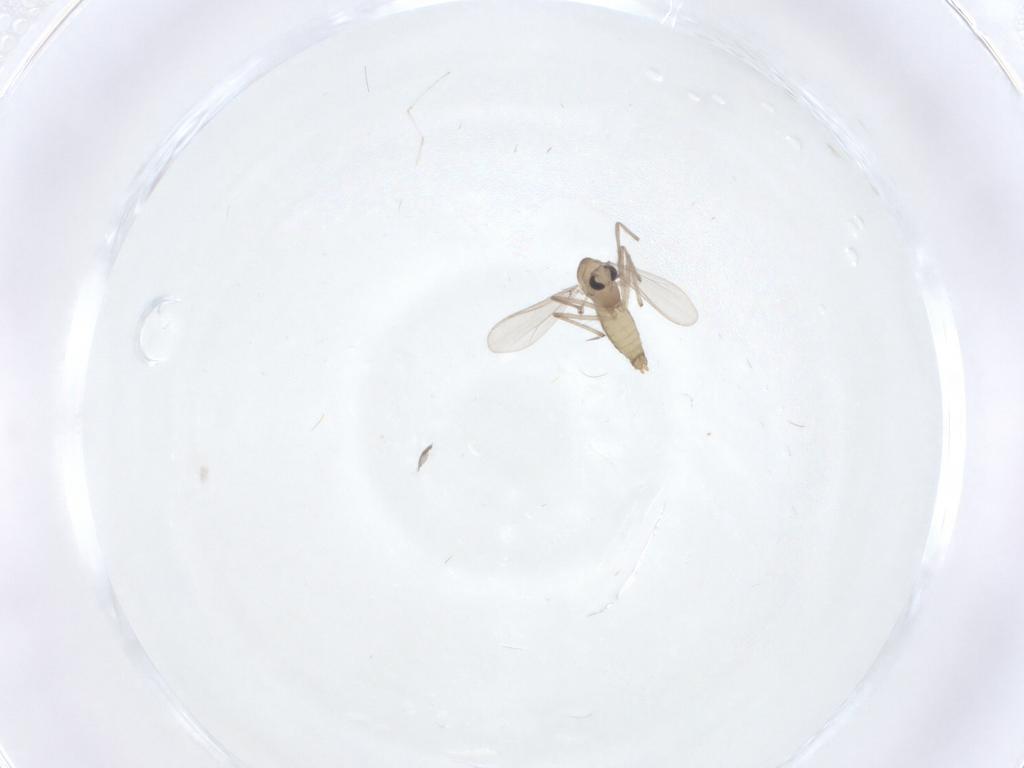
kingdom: Animalia
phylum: Arthropoda
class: Insecta
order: Diptera
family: Cecidomyiidae
